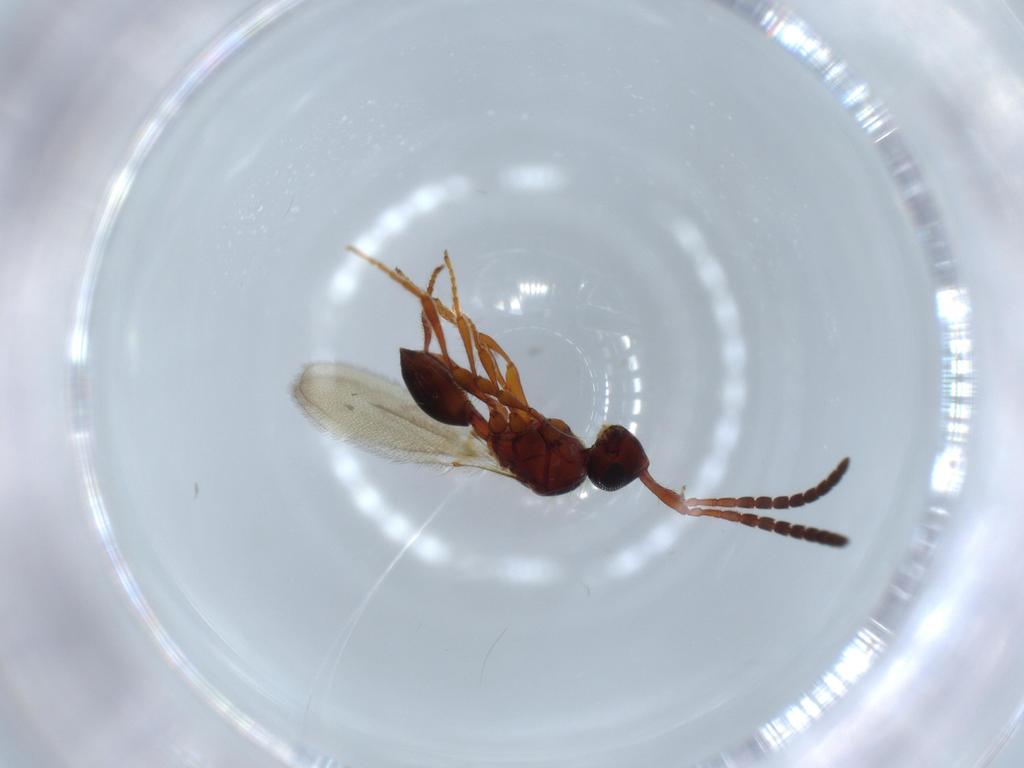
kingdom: Animalia
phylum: Arthropoda
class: Insecta
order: Hymenoptera
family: Diapriidae
